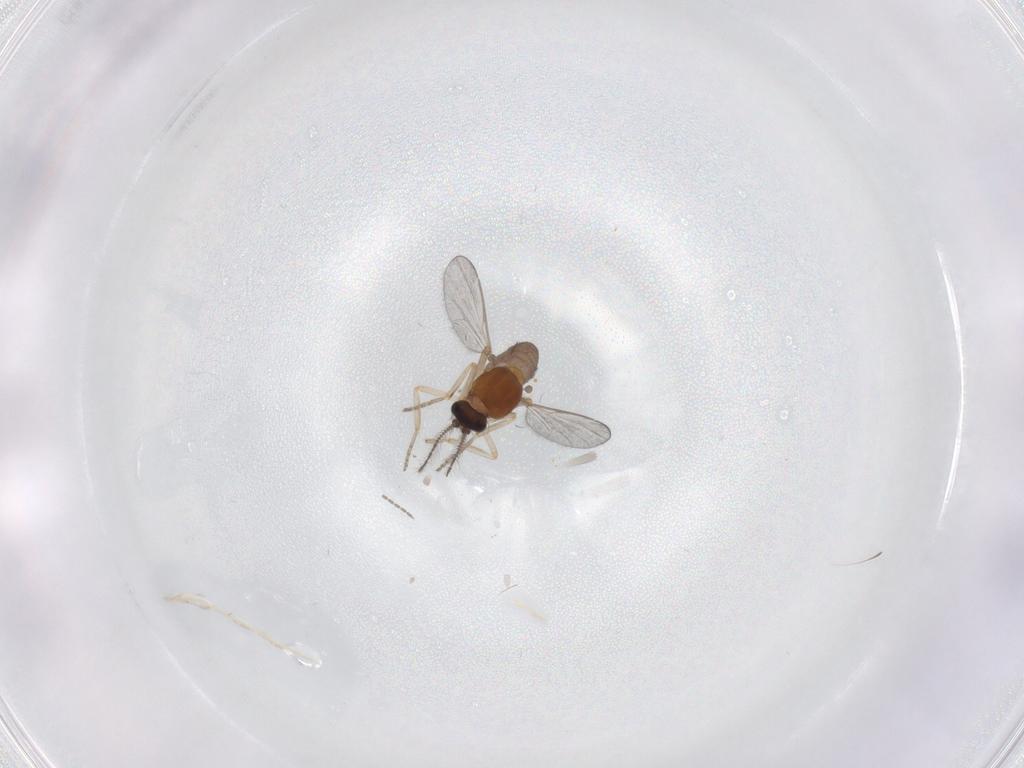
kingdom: Animalia
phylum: Arthropoda
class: Insecta
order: Diptera
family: Ceratopogonidae
